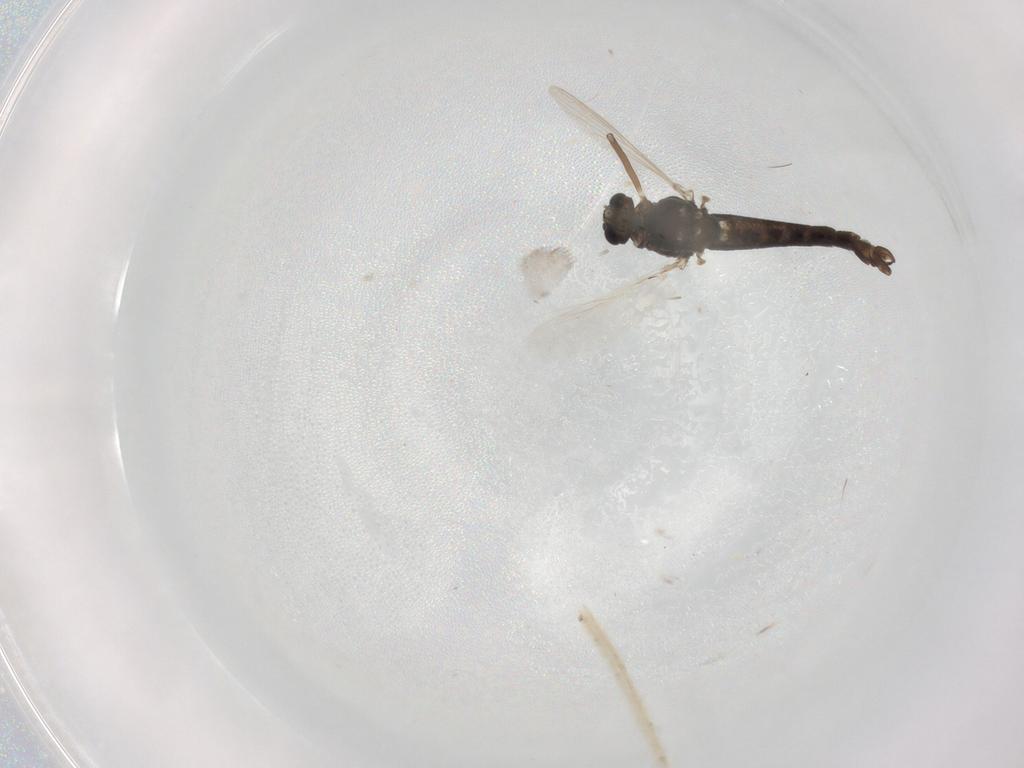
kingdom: Animalia
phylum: Arthropoda
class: Insecta
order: Diptera
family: Chironomidae
